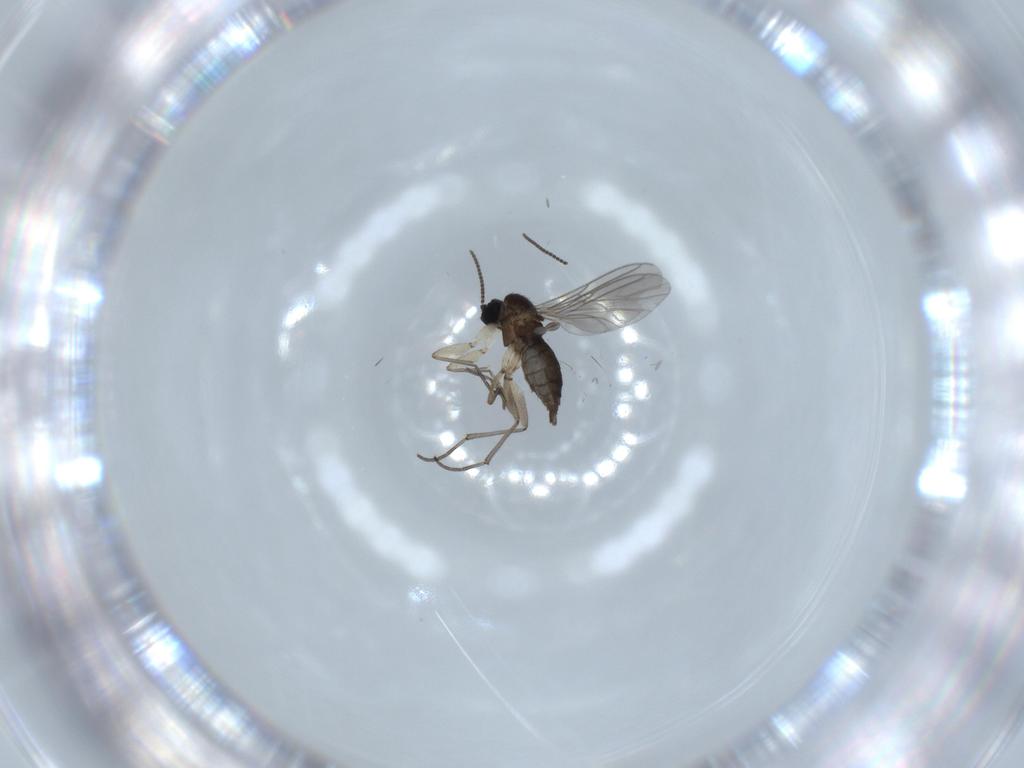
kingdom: Animalia
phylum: Arthropoda
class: Insecta
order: Diptera
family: Sciaridae
